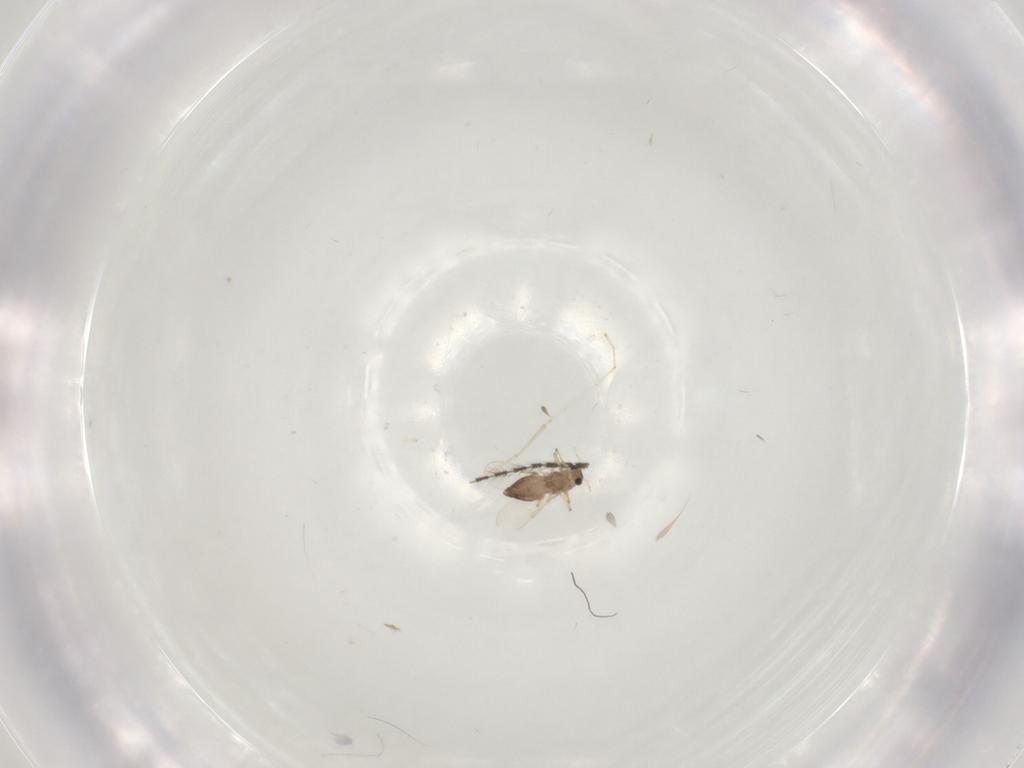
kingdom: Animalia
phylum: Arthropoda
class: Insecta
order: Diptera
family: Chironomidae
